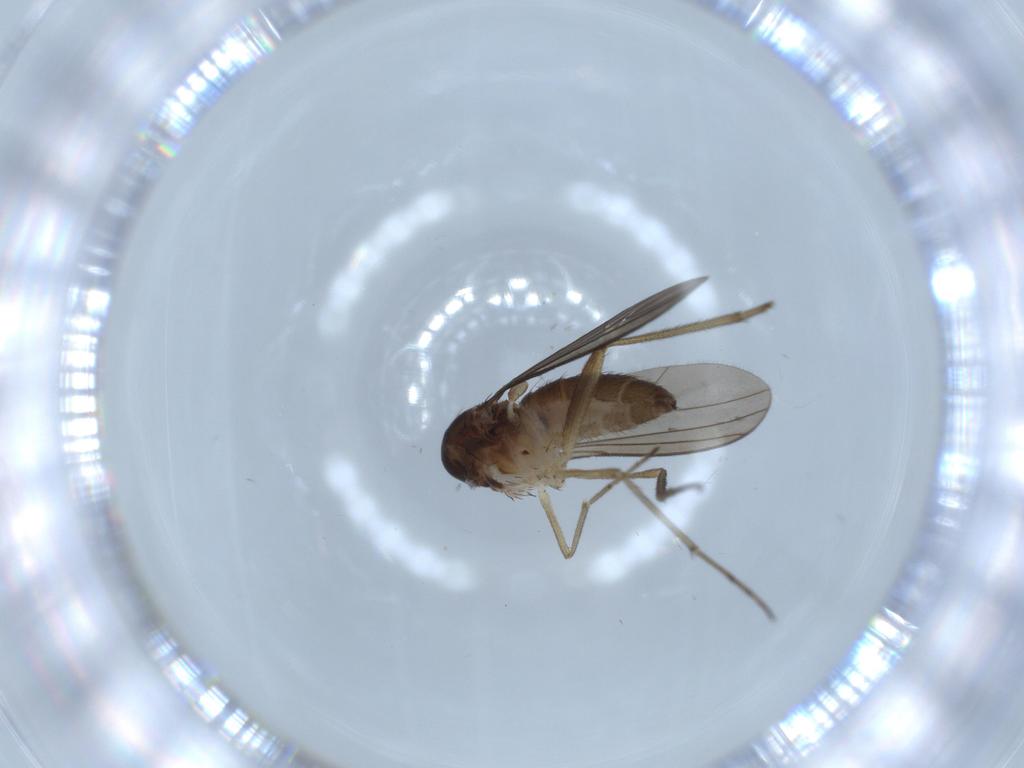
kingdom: Animalia
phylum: Arthropoda
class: Insecta
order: Diptera
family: Dolichopodidae
